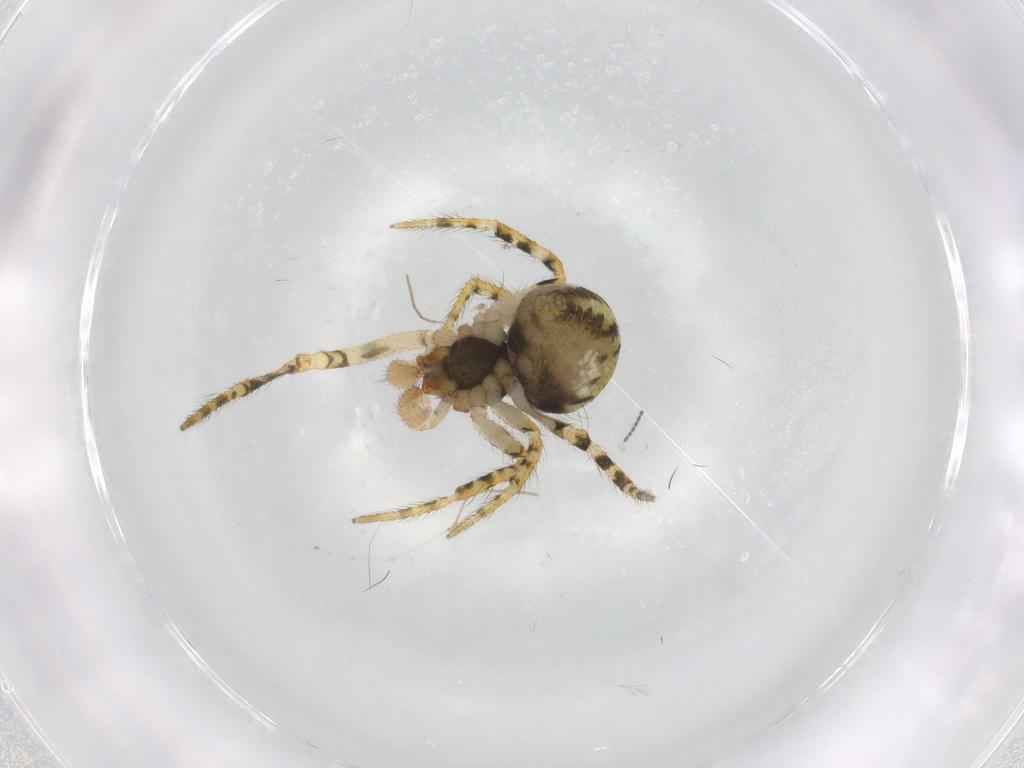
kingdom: Animalia
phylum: Arthropoda
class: Arachnida
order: Araneae
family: Theridiidae
